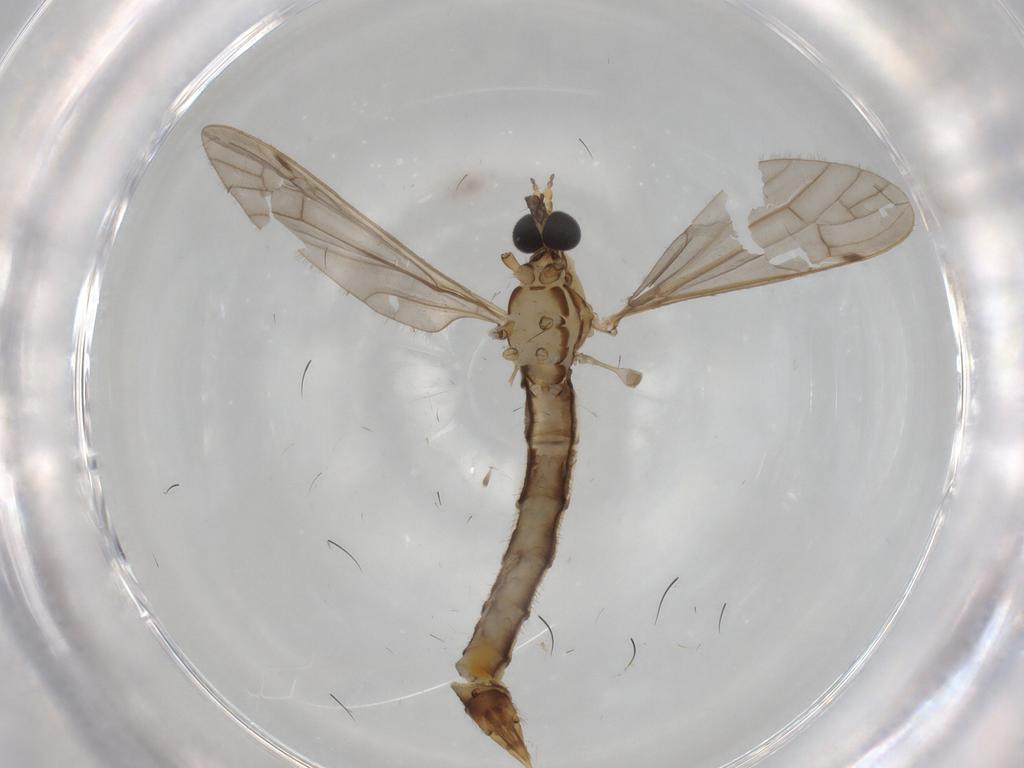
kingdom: Animalia
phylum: Arthropoda
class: Insecta
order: Diptera
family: Limoniidae
